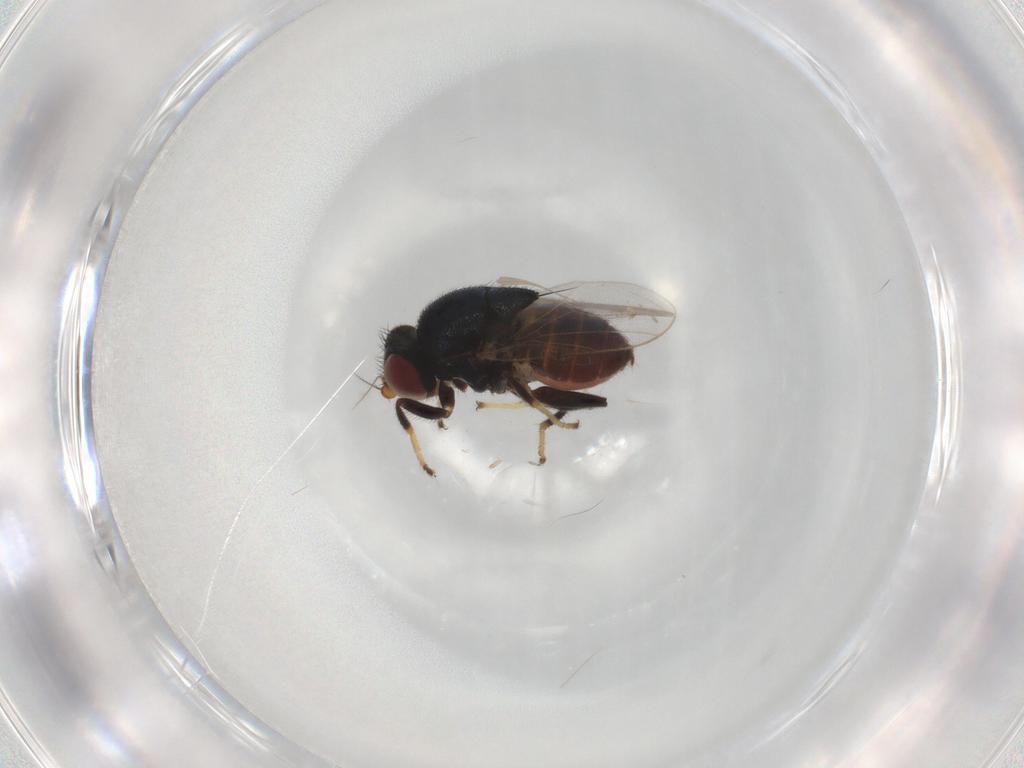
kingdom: Animalia
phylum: Arthropoda
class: Insecta
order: Diptera
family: Chloropidae
